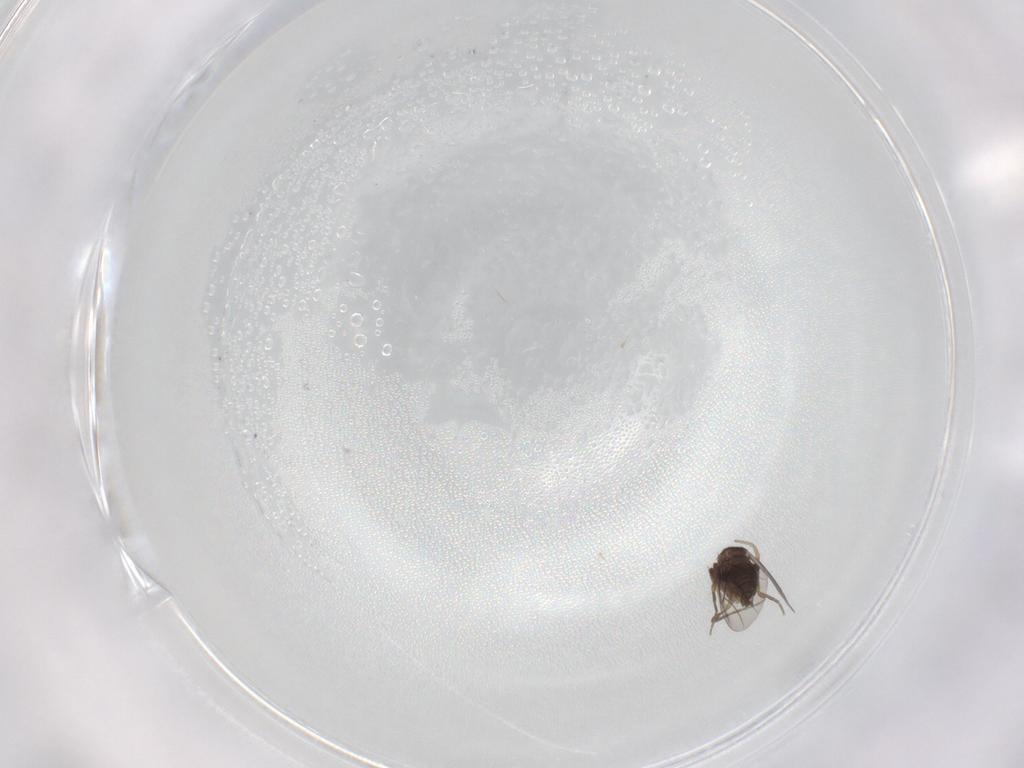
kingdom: Animalia
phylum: Arthropoda
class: Insecta
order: Diptera
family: Phoridae
